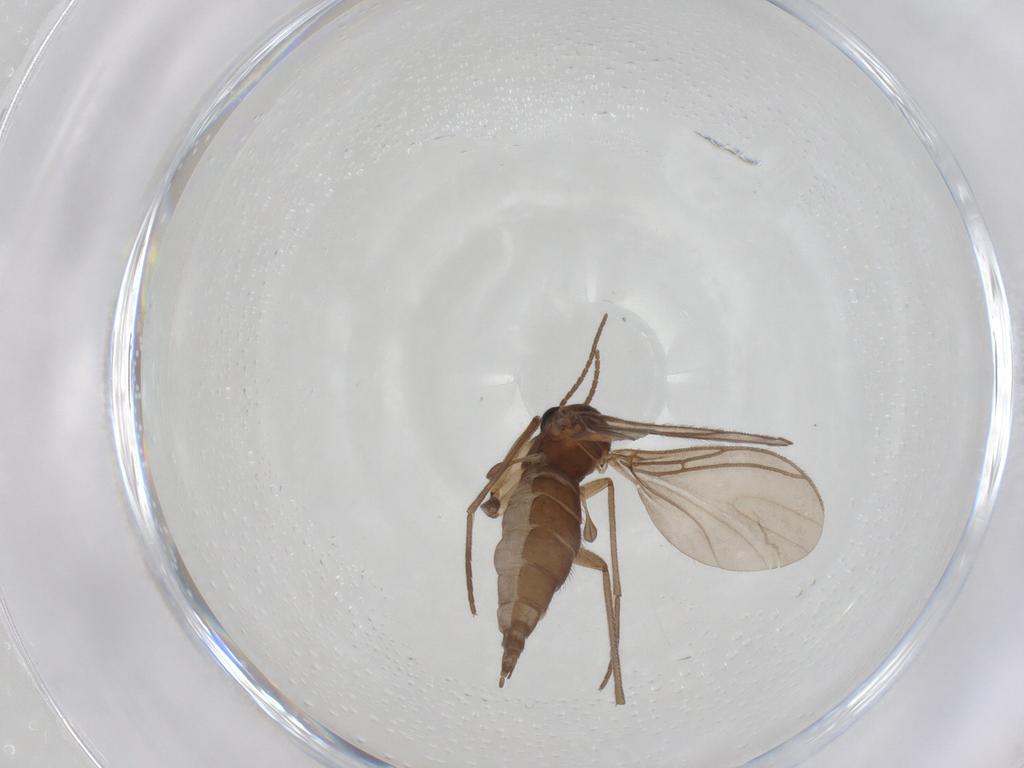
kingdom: Animalia
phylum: Arthropoda
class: Insecta
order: Diptera
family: Sciaridae
